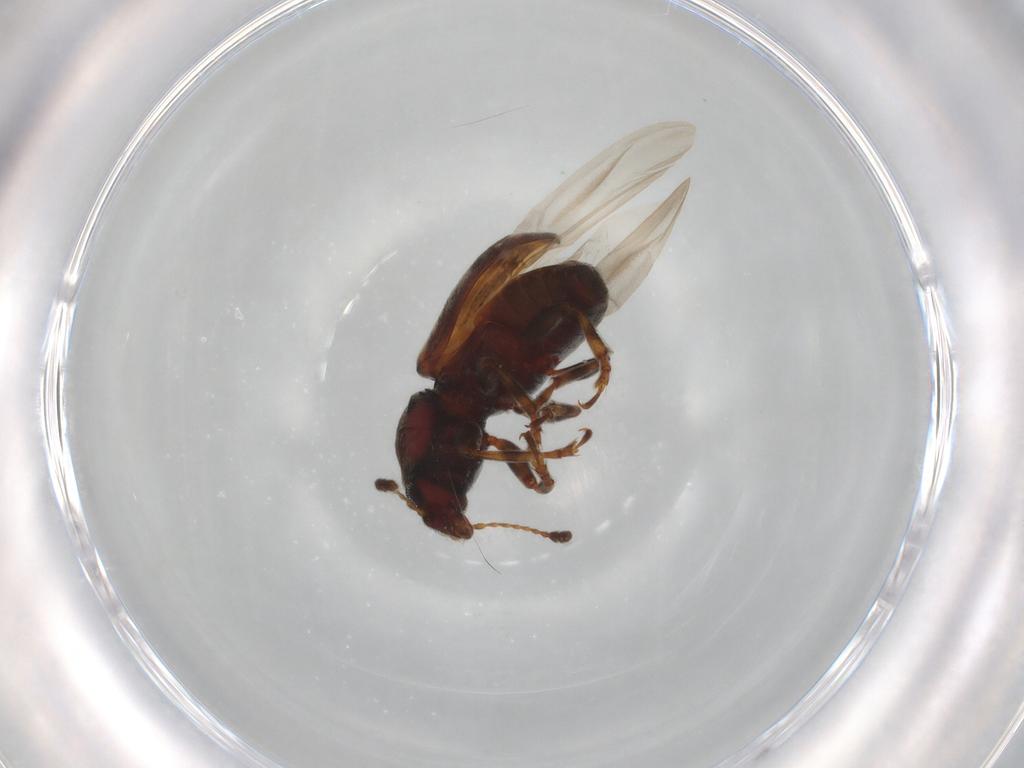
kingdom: Animalia
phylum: Arthropoda
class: Insecta
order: Coleoptera
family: Anthribidae
